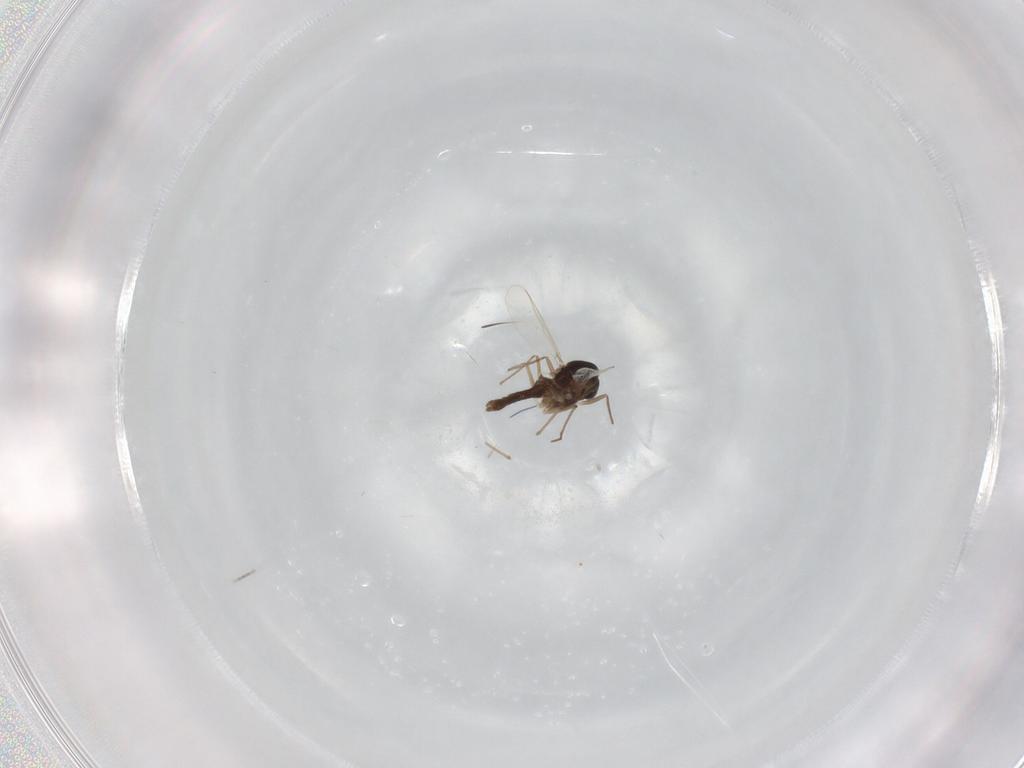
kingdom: Animalia
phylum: Arthropoda
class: Insecta
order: Diptera
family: Chironomidae
